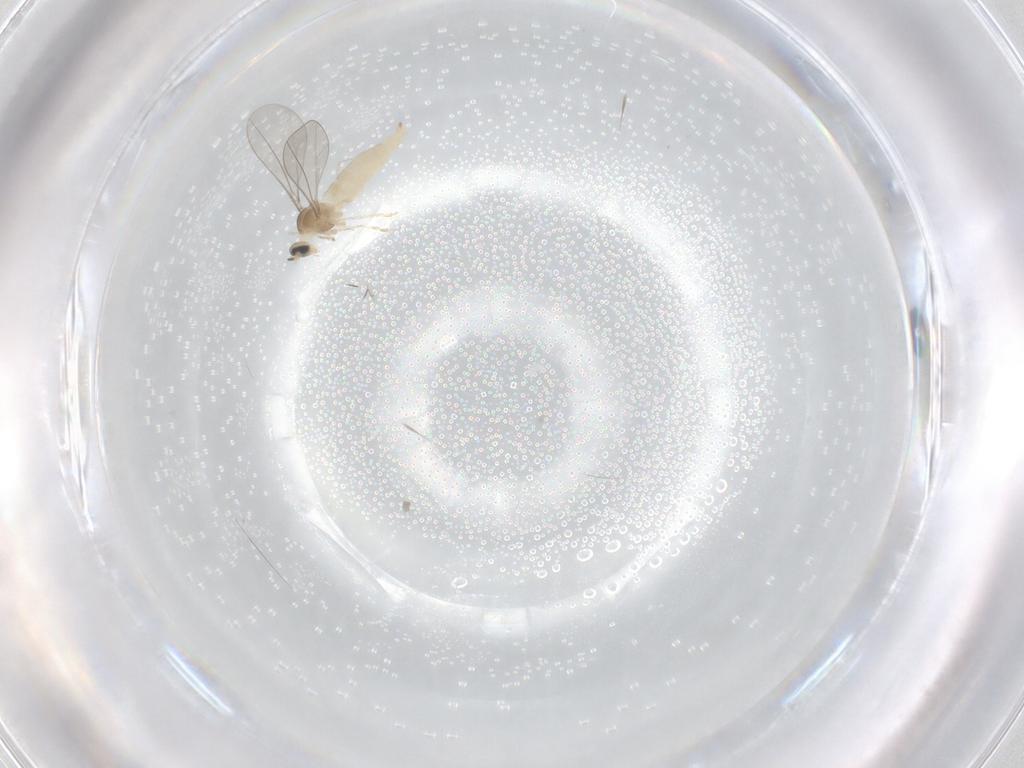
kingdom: Animalia
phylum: Arthropoda
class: Insecta
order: Diptera
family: Cecidomyiidae
